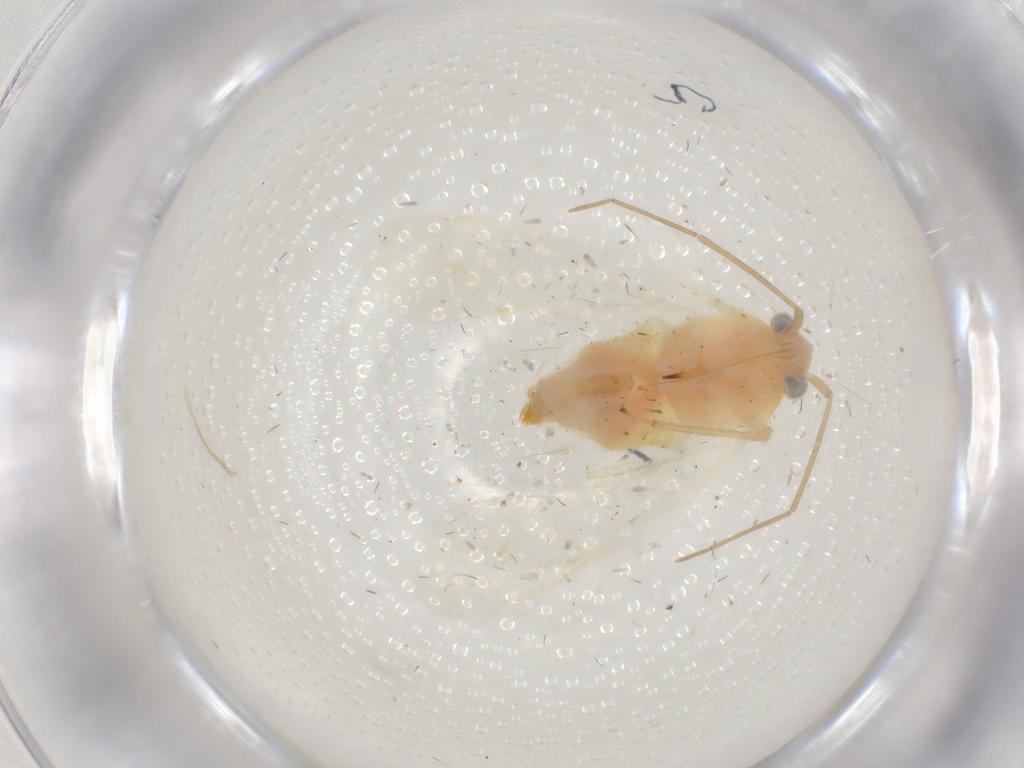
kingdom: Animalia
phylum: Arthropoda
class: Insecta
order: Hemiptera
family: Miridae
